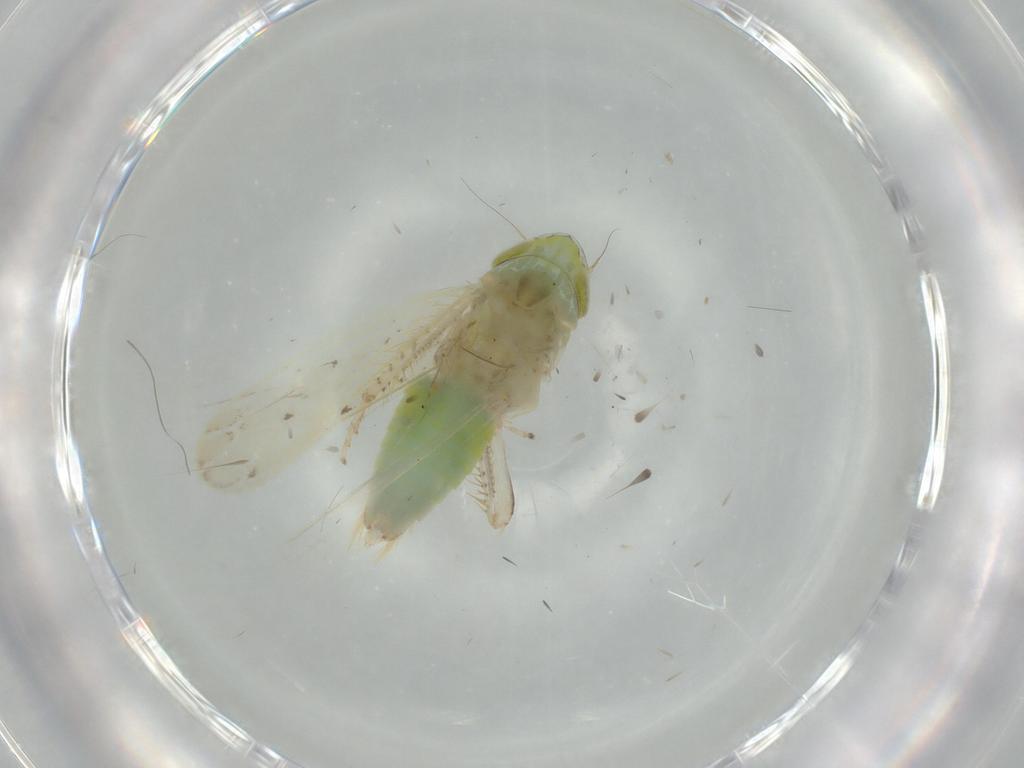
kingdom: Animalia
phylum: Arthropoda
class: Insecta
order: Hemiptera
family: Cicadellidae
